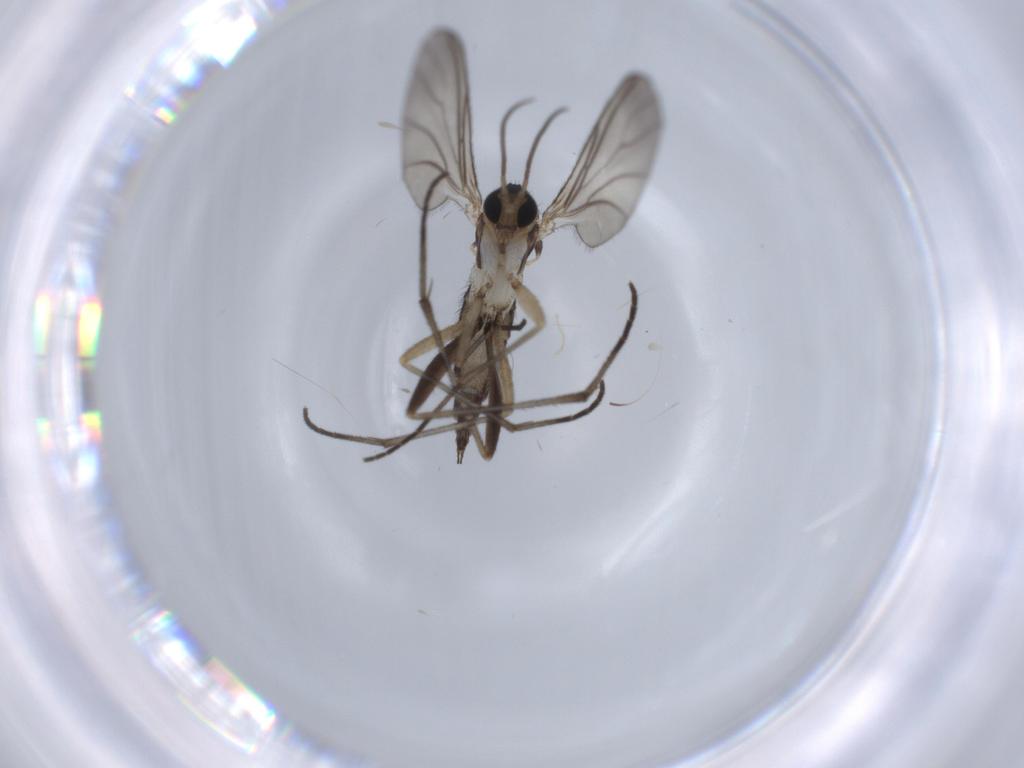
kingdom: Animalia
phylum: Arthropoda
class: Insecta
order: Diptera
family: Sciaridae
